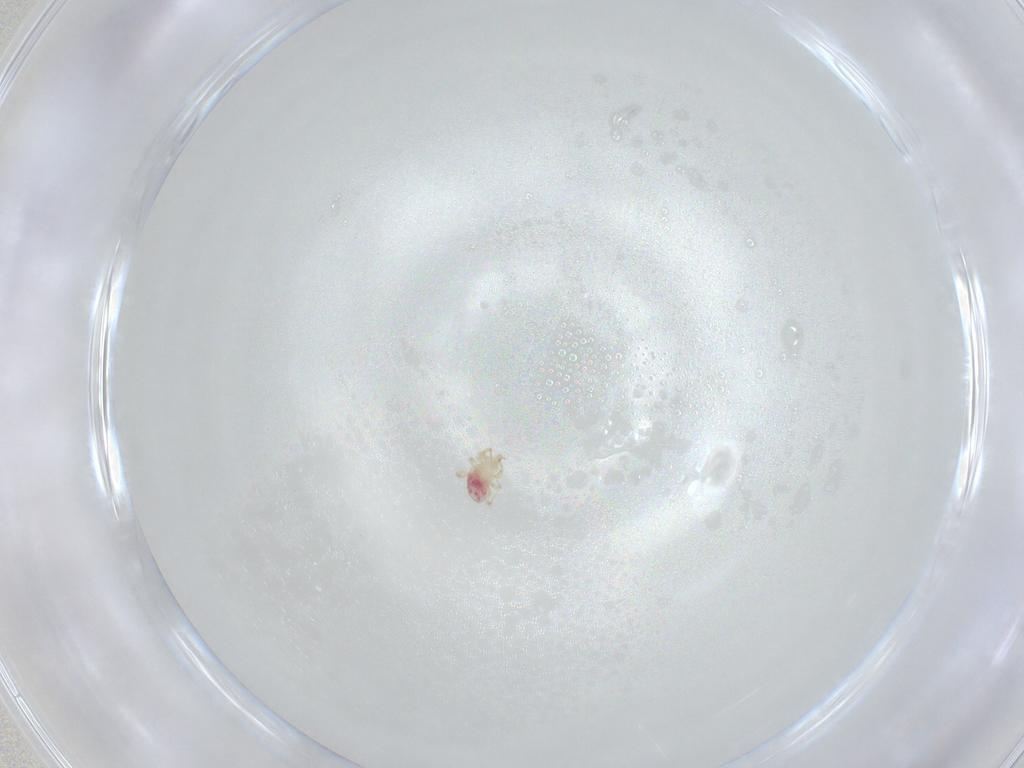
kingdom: Animalia
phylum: Arthropoda
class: Arachnida
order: Mesostigmata
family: Phytoseiidae
